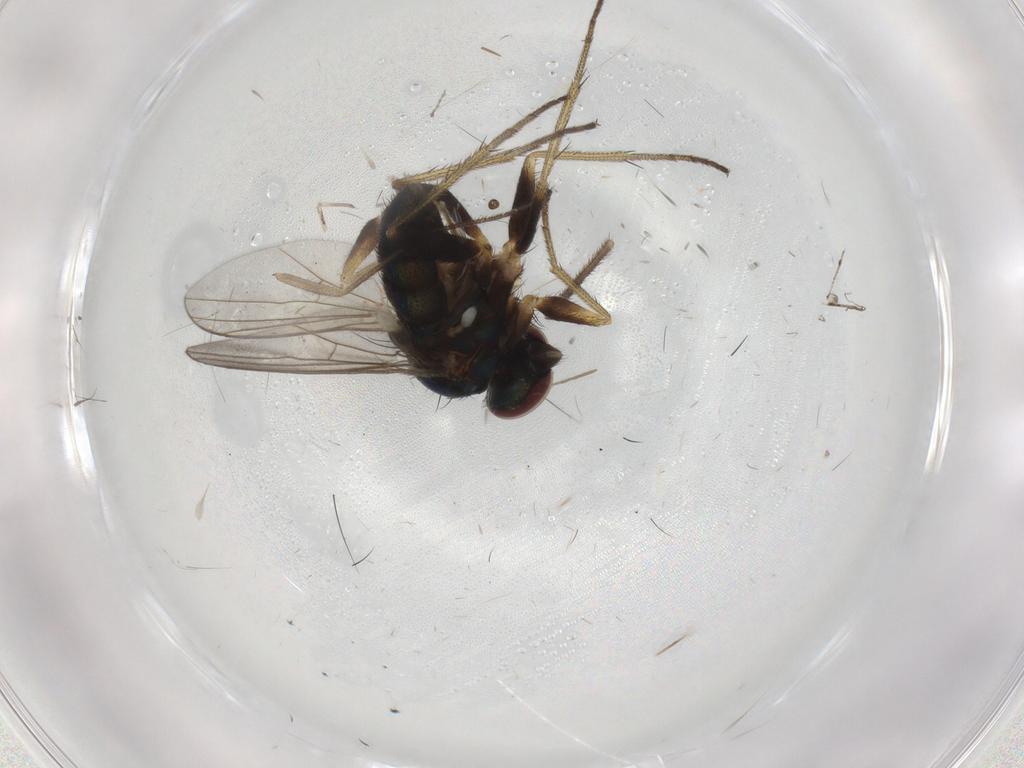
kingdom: Animalia
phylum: Arthropoda
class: Insecta
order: Diptera
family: Dolichopodidae
